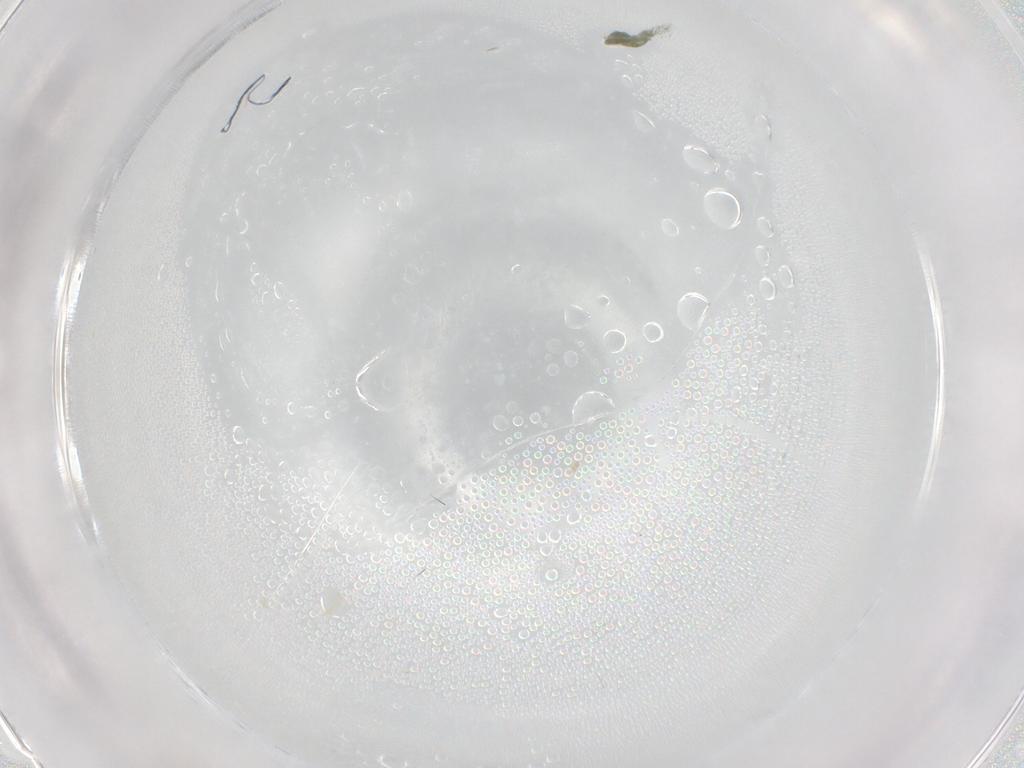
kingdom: Animalia
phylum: Arthropoda
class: Insecta
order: Diptera
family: Cecidomyiidae
